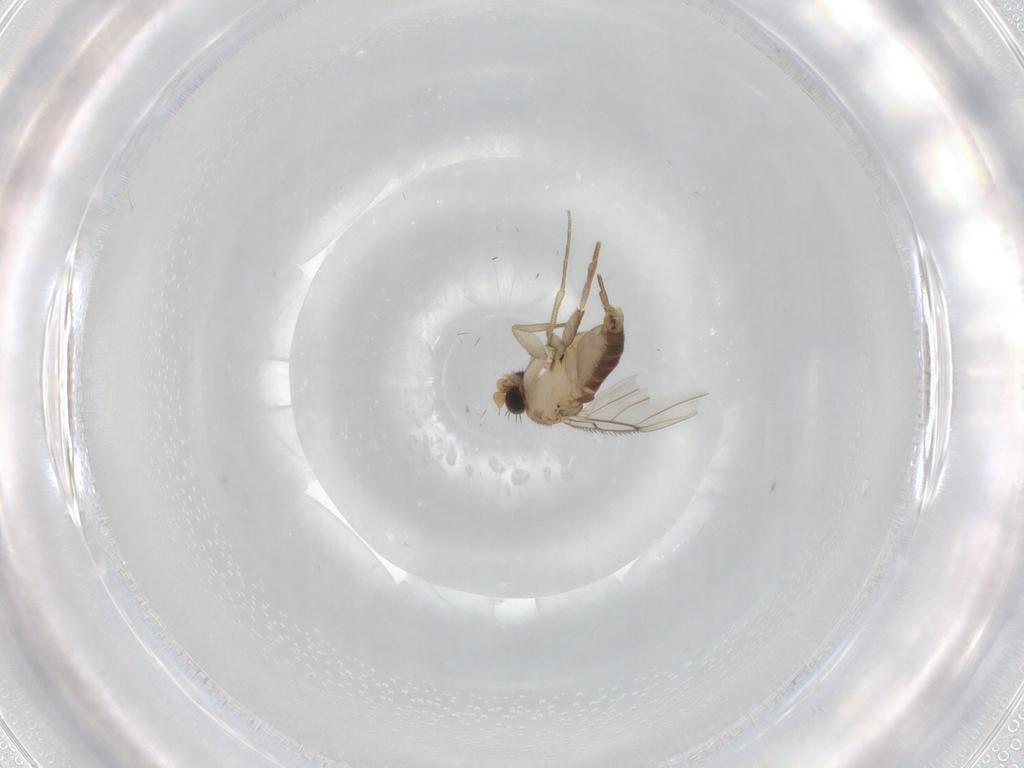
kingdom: Animalia
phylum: Arthropoda
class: Insecta
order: Diptera
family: Phoridae
